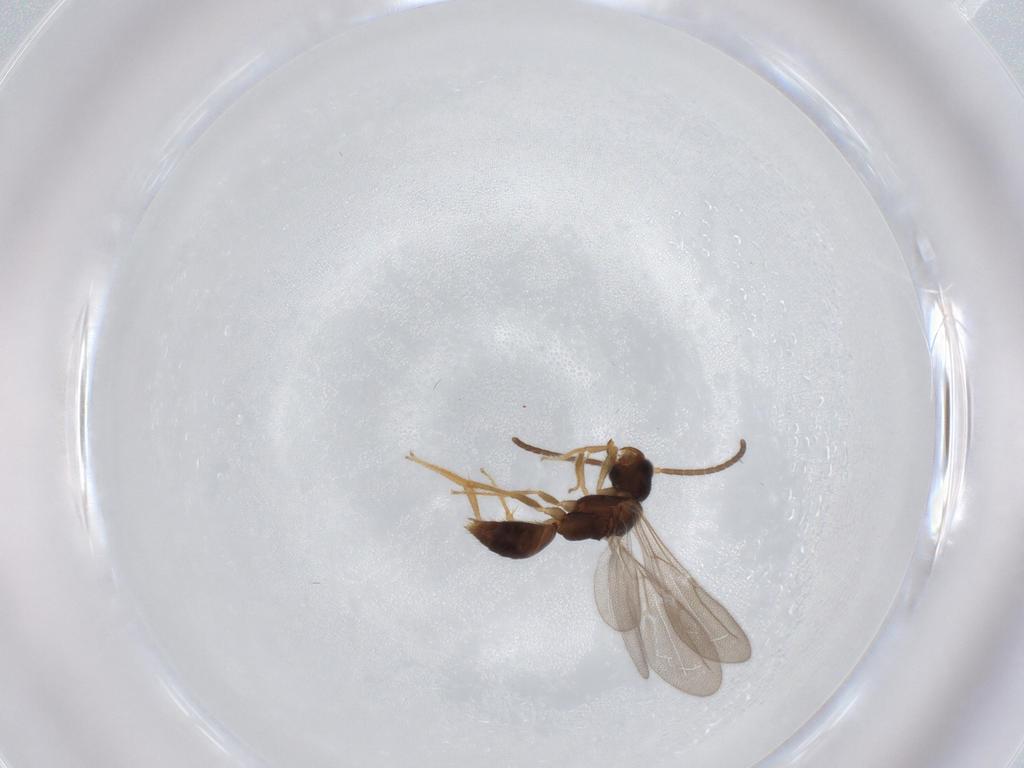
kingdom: Animalia
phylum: Arthropoda
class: Insecta
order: Hymenoptera
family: Bethylidae
